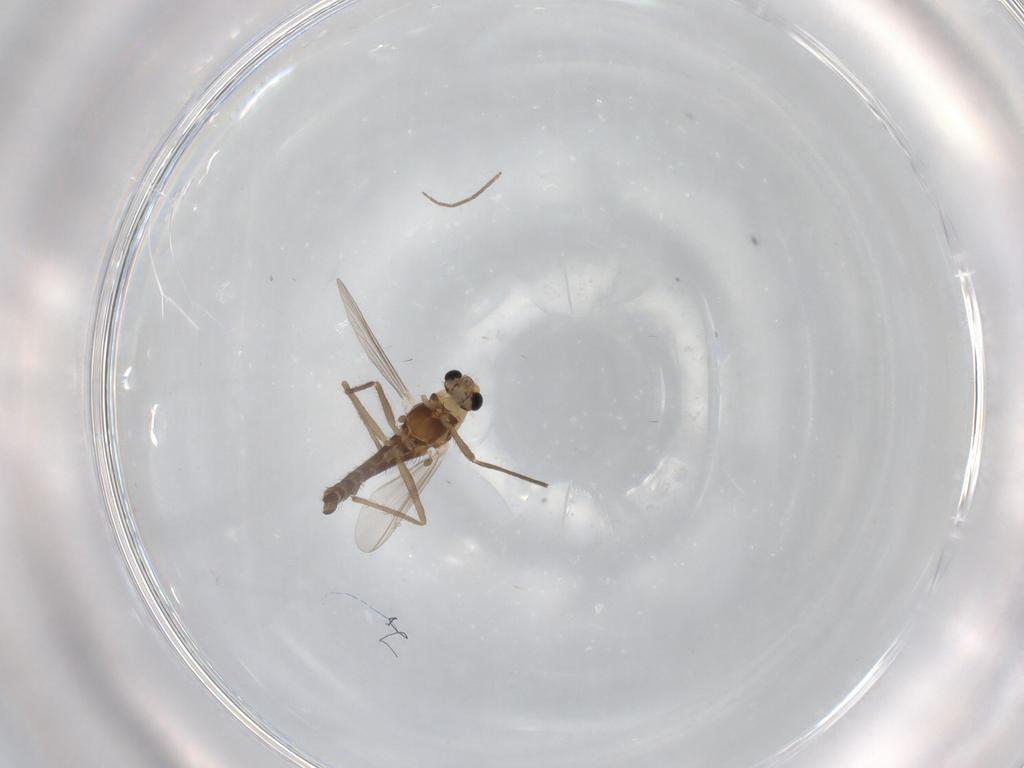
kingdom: Animalia
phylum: Arthropoda
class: Insecta
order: Diptera
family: Chironomidae
